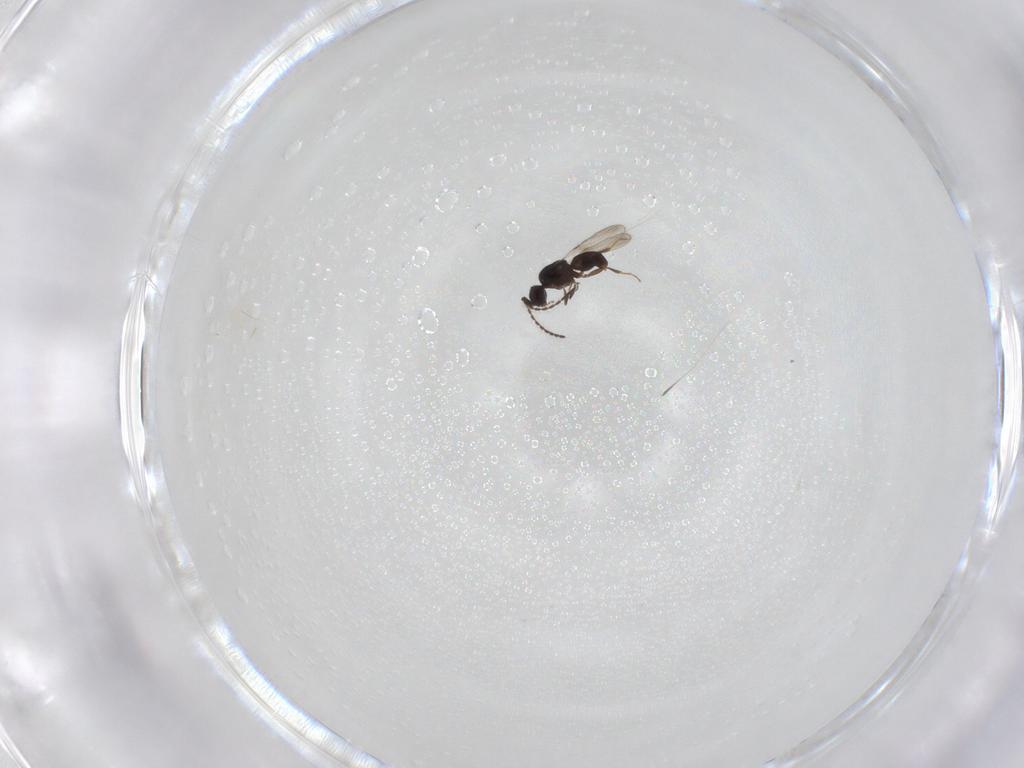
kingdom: Animalia
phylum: Arthropoda
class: Insecta
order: Hymenoptera
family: Ceraphronidae
